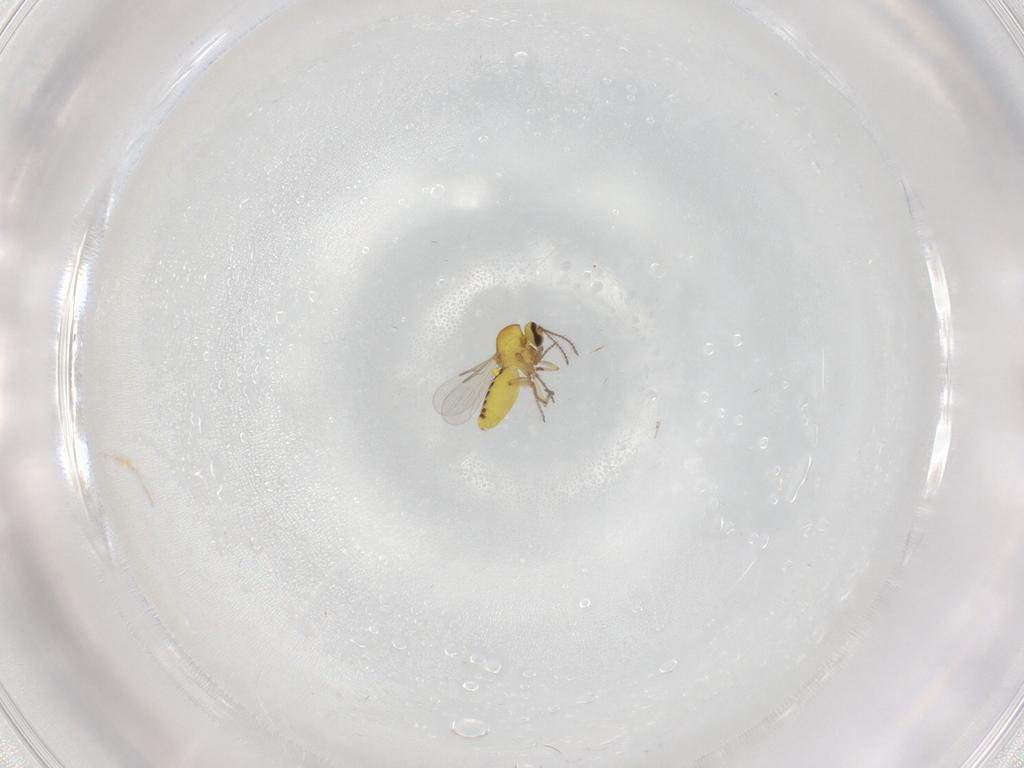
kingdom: Animalia
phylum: Arthropoda
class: Insecta
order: Diptera
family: Ceratopogonidae
